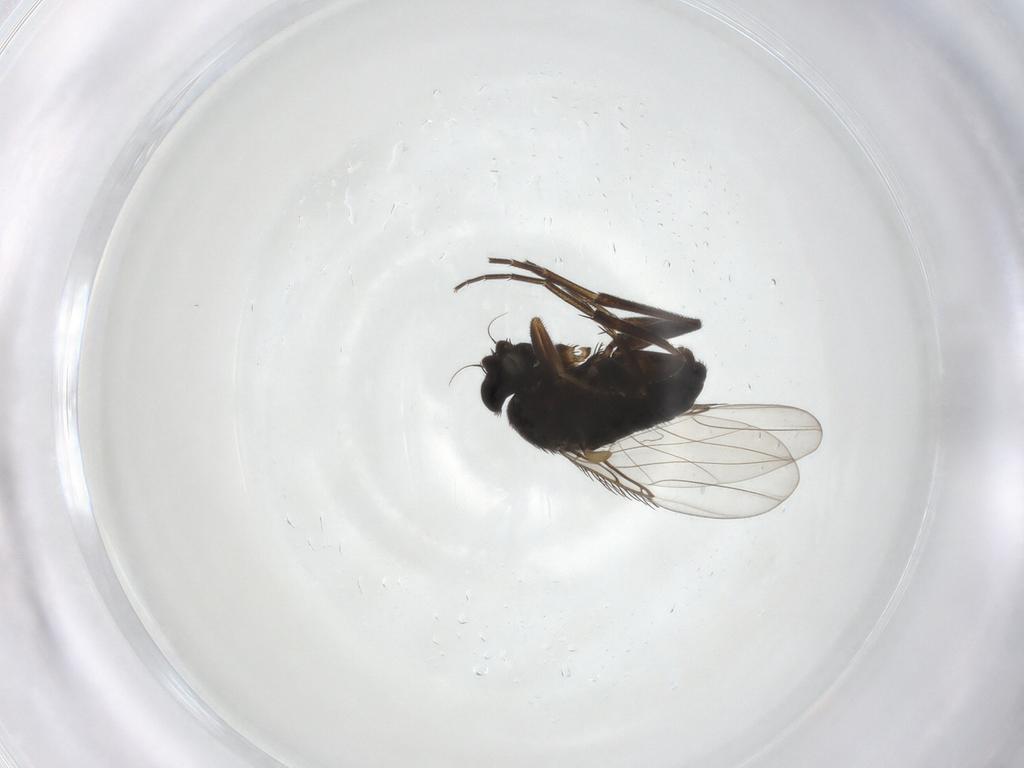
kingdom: Animalia
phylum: Arthropoda
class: Insecta
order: Diptera
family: Phoridae
